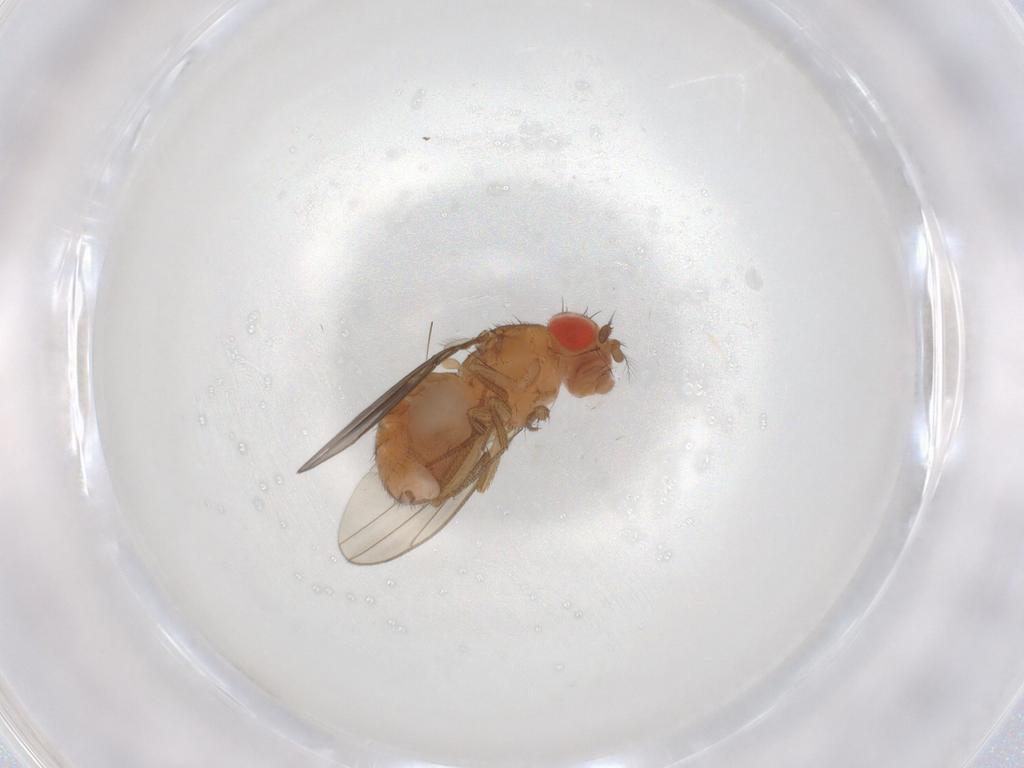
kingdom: Animalia
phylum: Arthropoda
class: Insecta
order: Diptera
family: Drosophilidae
